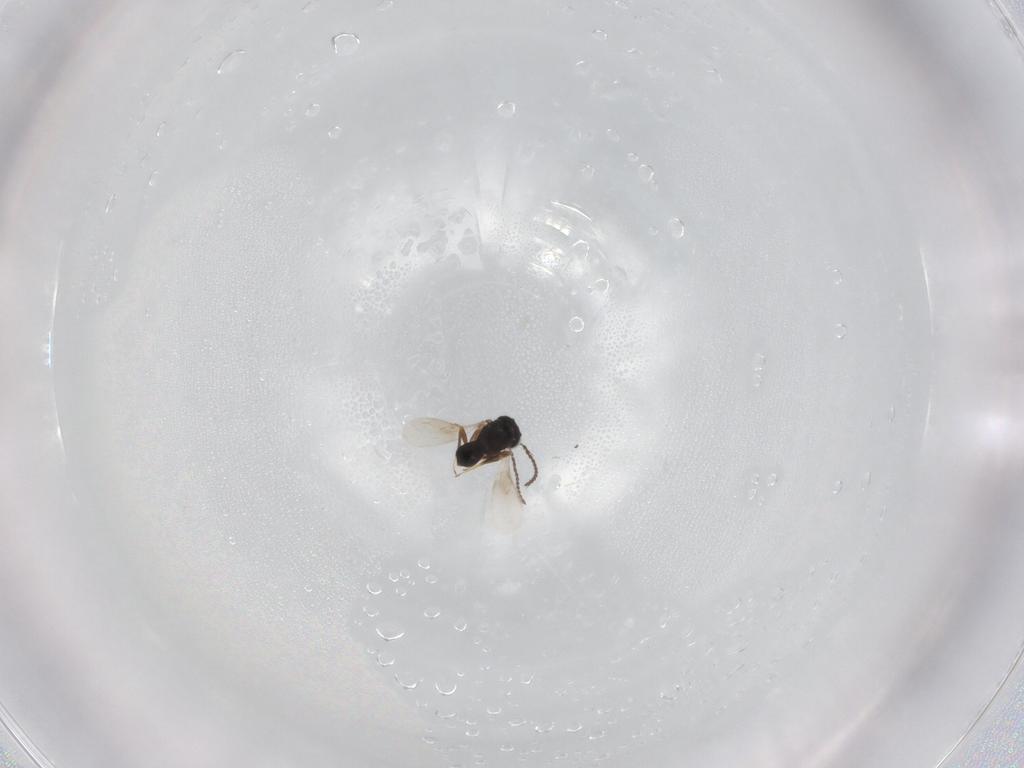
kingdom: Animalia
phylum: Arthropoda
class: Insecta
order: Hymenoptera
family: Scelionidae
